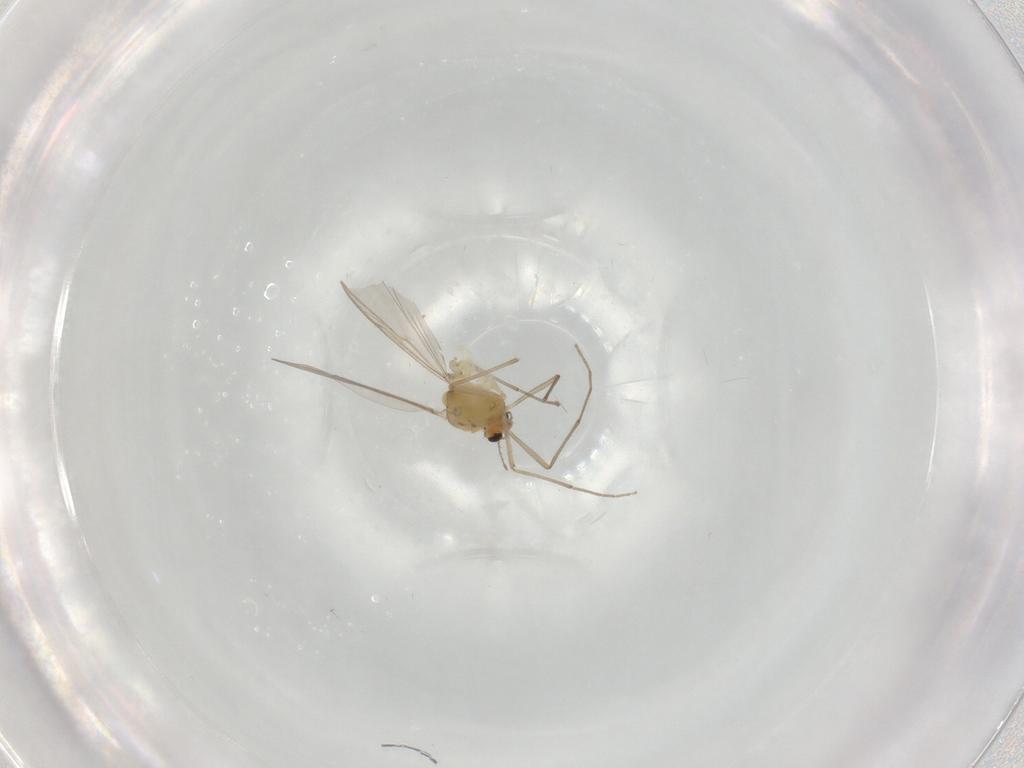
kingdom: Animalia
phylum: Arthropoda
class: Insecta
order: Diptera
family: Chironomidae
